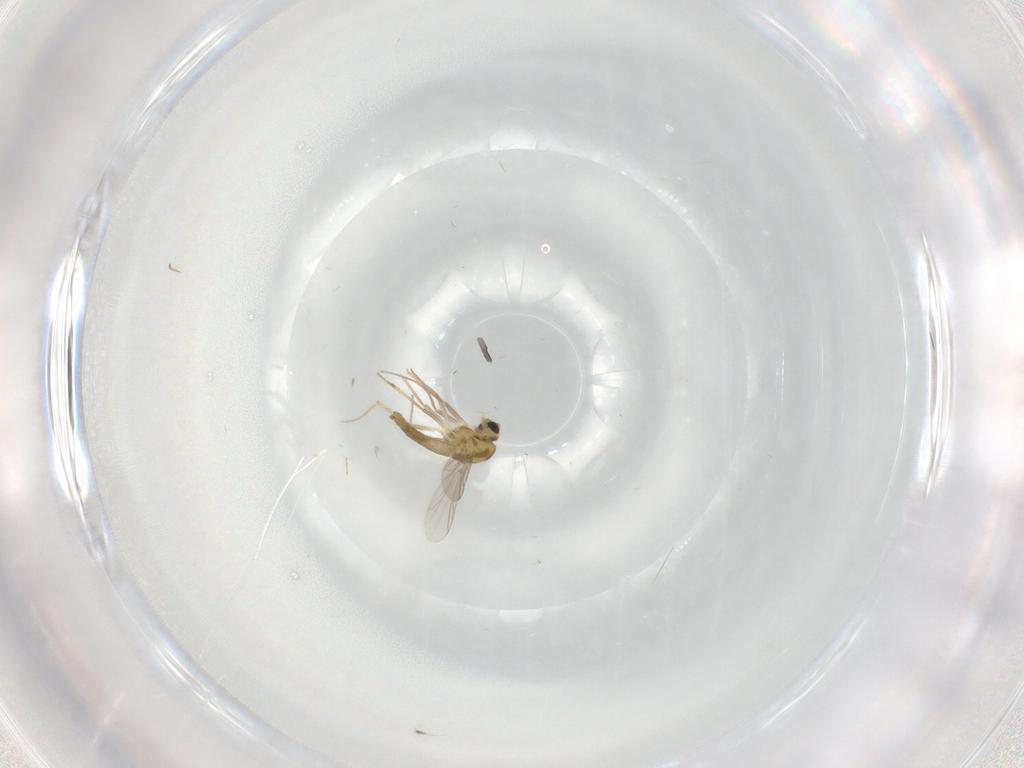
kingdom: Animalia
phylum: Arthropoda
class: Insecta
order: Diptera
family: Chironomidae
